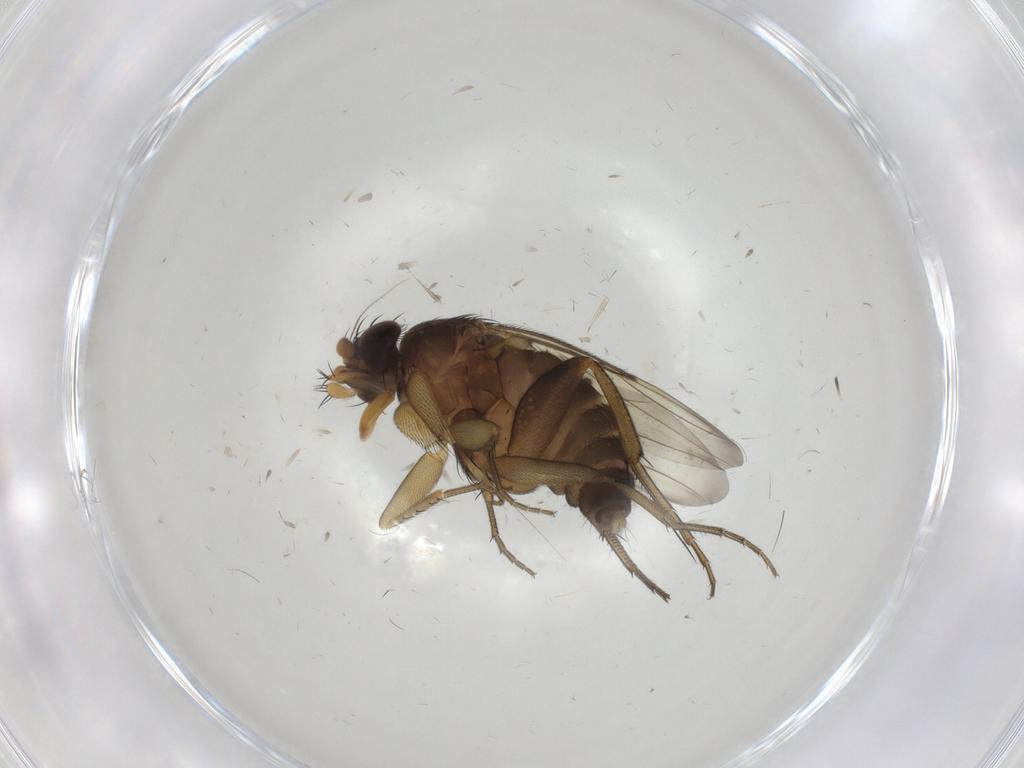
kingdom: Animalia
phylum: Arthropoda
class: Insecta
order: Diptera
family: Phoridae
